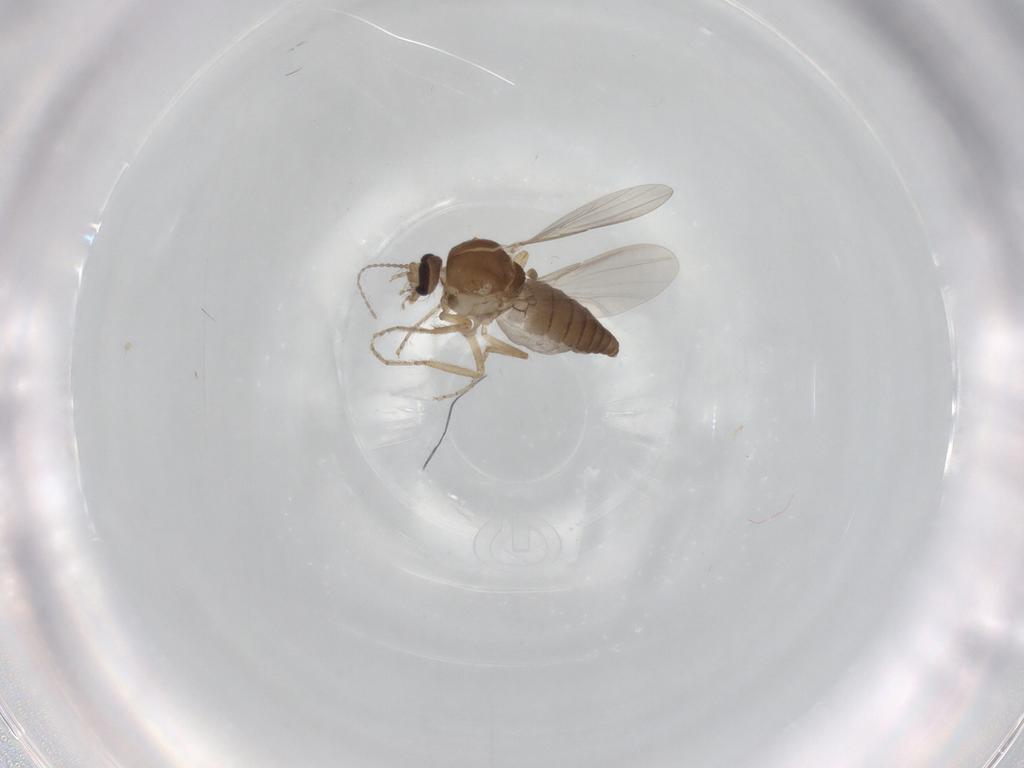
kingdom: Animalia
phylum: Arthropoda
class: Insecta
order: Diptera
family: Ceratopogonidae
